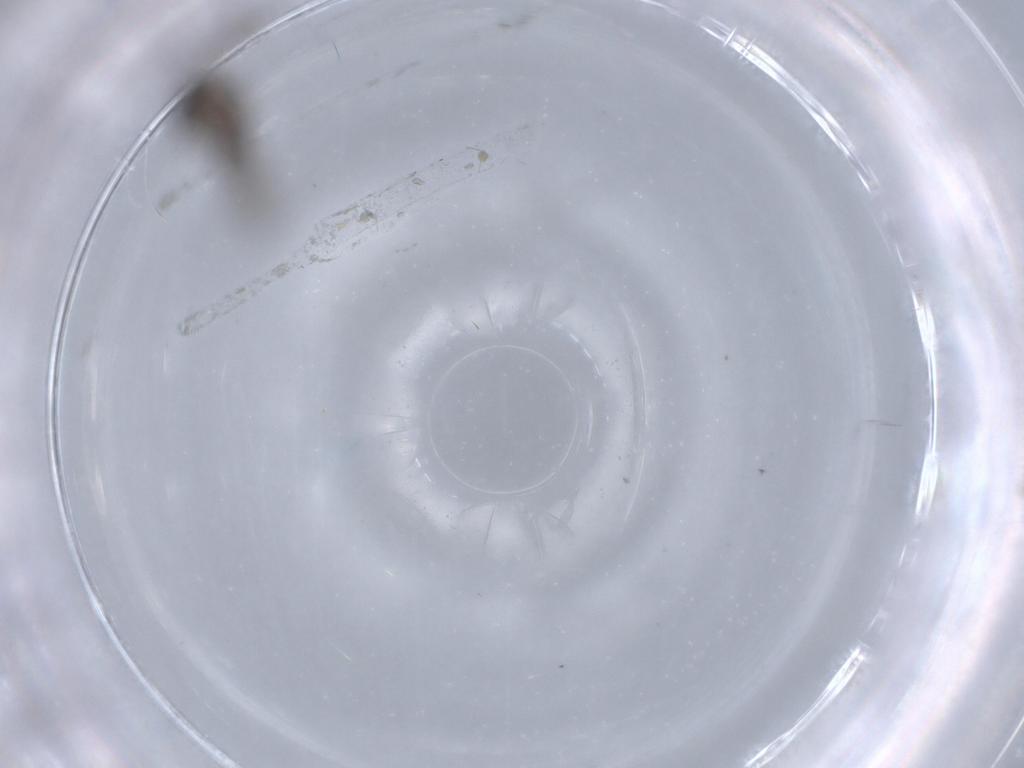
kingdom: Animalia
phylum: Arthropoda
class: Insecta
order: Diptera
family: Psychodidae
